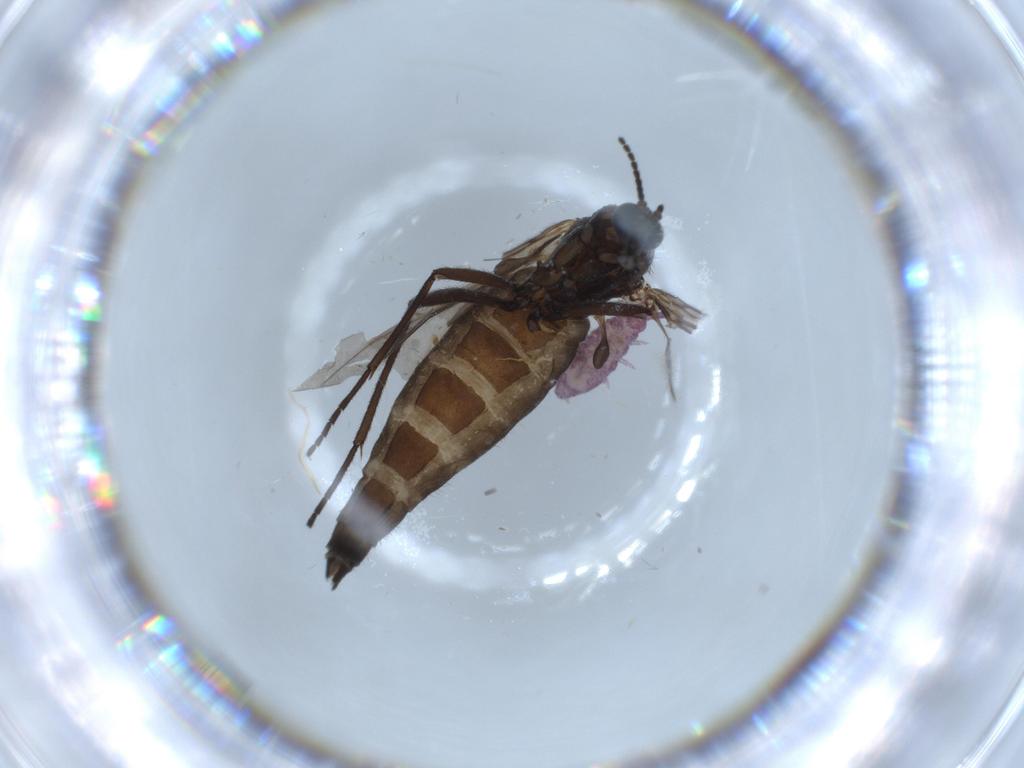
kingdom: Animalia
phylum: Arthropoda
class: Insecta
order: Diptera
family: Sciaridae
